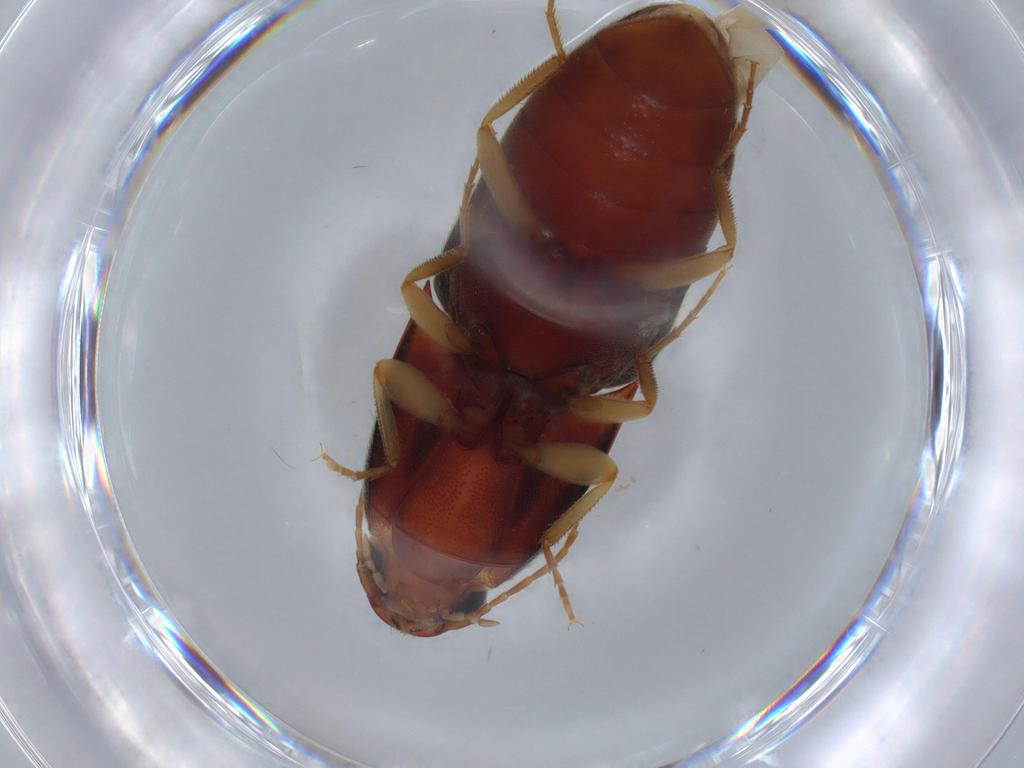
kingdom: Animalia
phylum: Arthropoda
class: Insecta
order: Coleoptera
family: Elateridae
